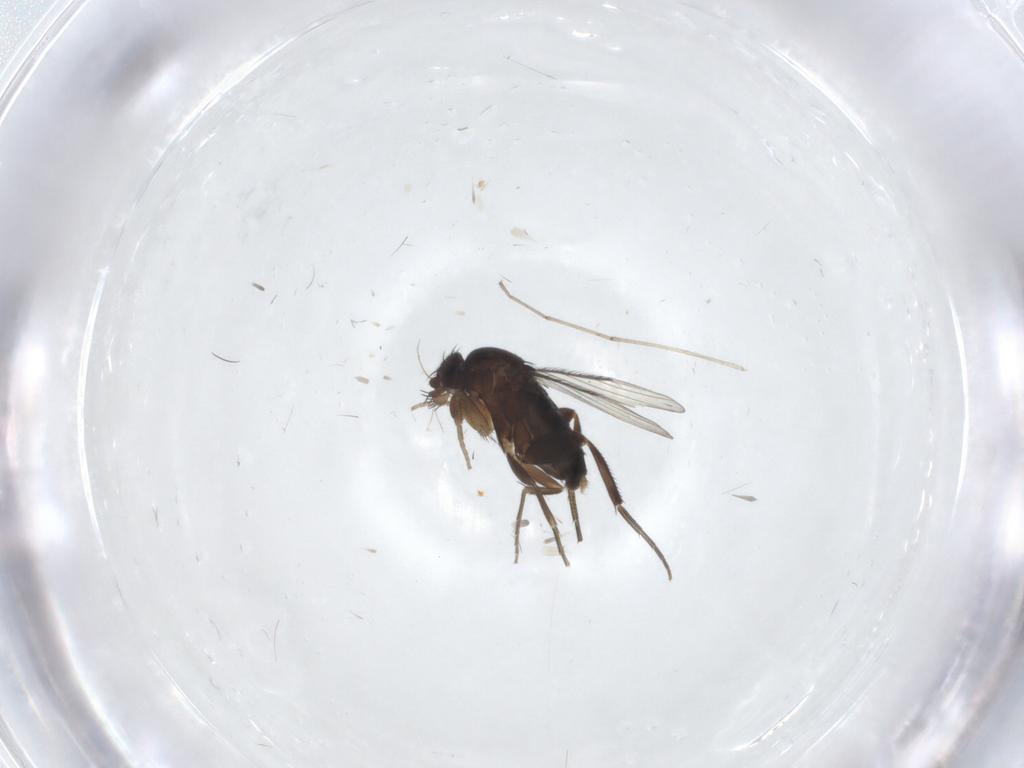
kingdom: Animalia
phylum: Arthropoda
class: Insecta
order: Diptera
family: Phoridae
